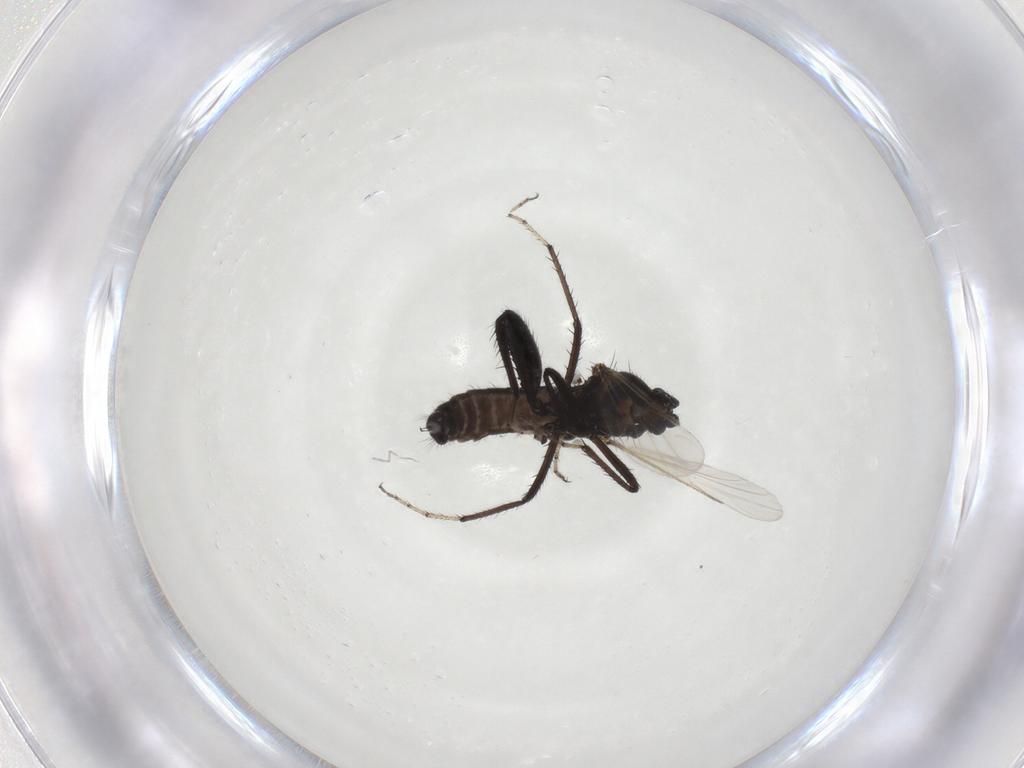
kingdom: Animalia
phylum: Arthropoda
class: Insecta
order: Diptera
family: Ceratopogonidae
